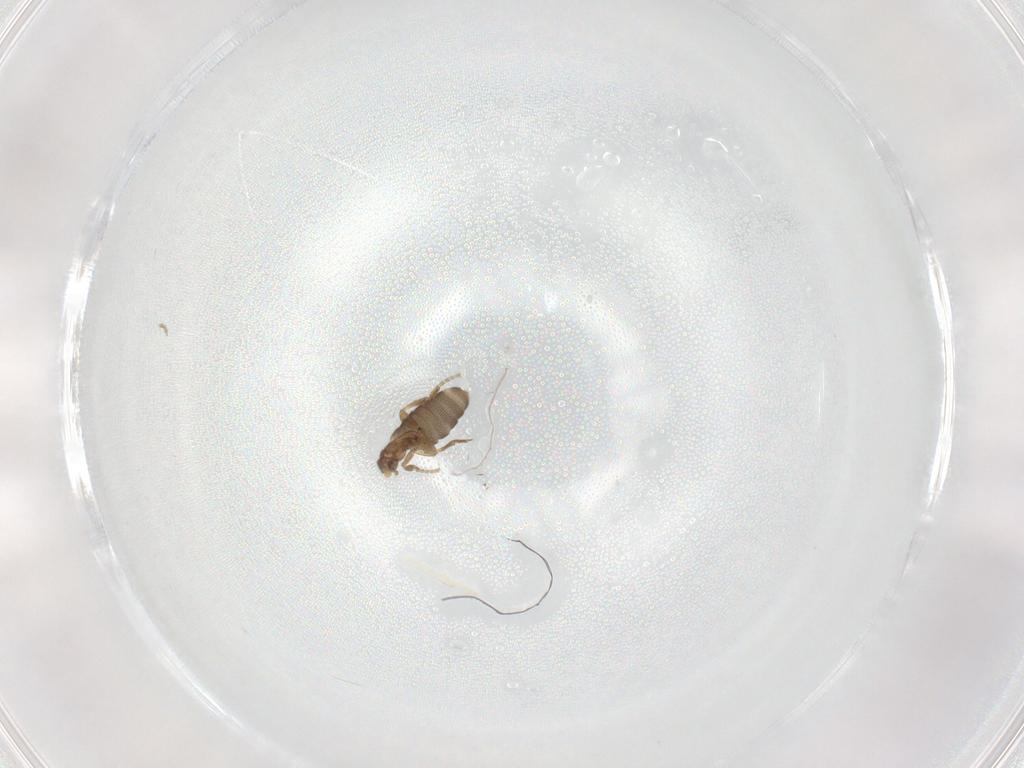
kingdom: Animalia
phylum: Arthropoda
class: Insecta
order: Diptera
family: Phoridae
